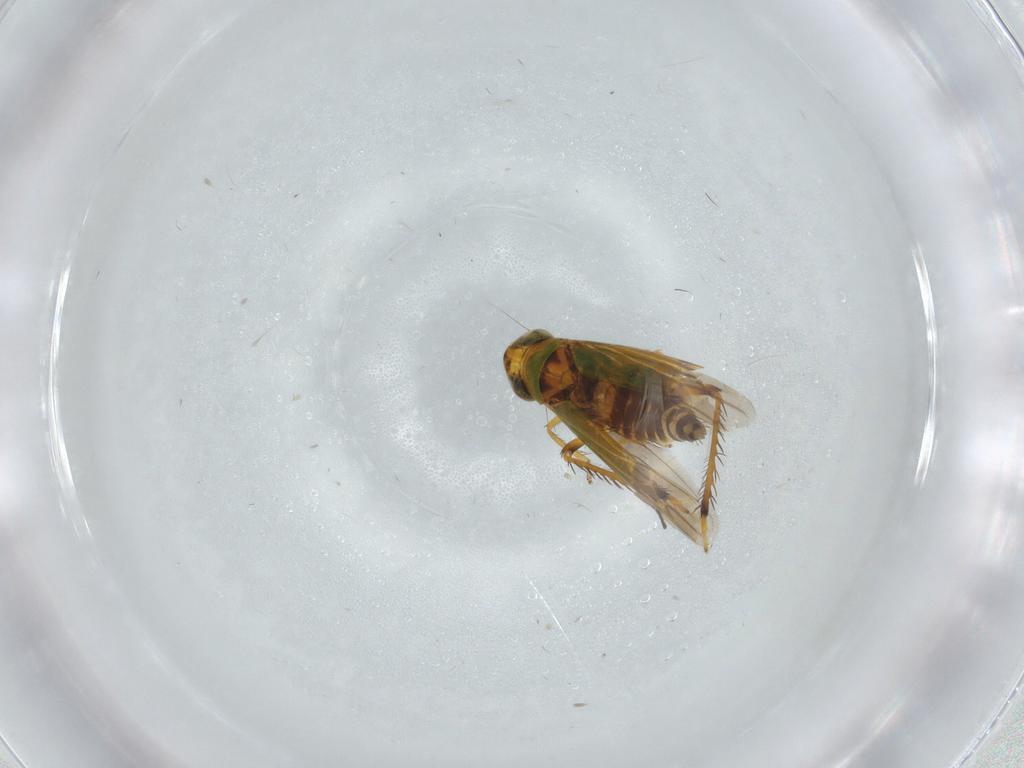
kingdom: Animalia
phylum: Arthropoda
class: Insecta
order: Hemiptera
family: Cicadellidae
